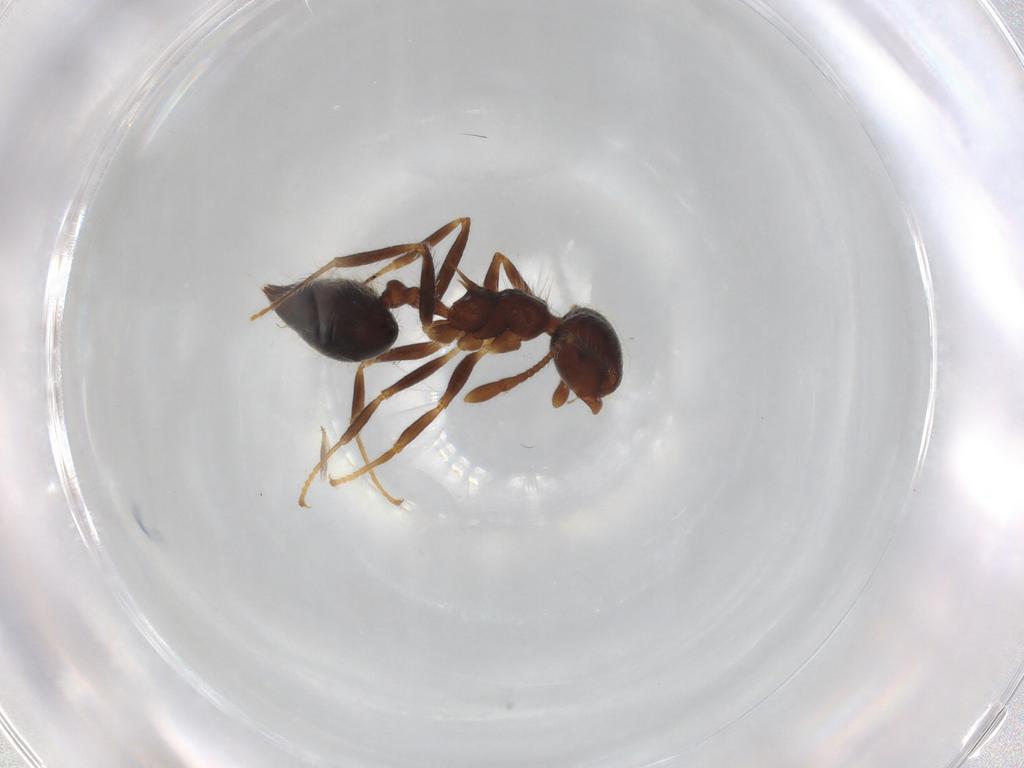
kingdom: Animalia
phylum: Arthropoda
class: Insecta
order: Hymenoptera
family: Formicidae
